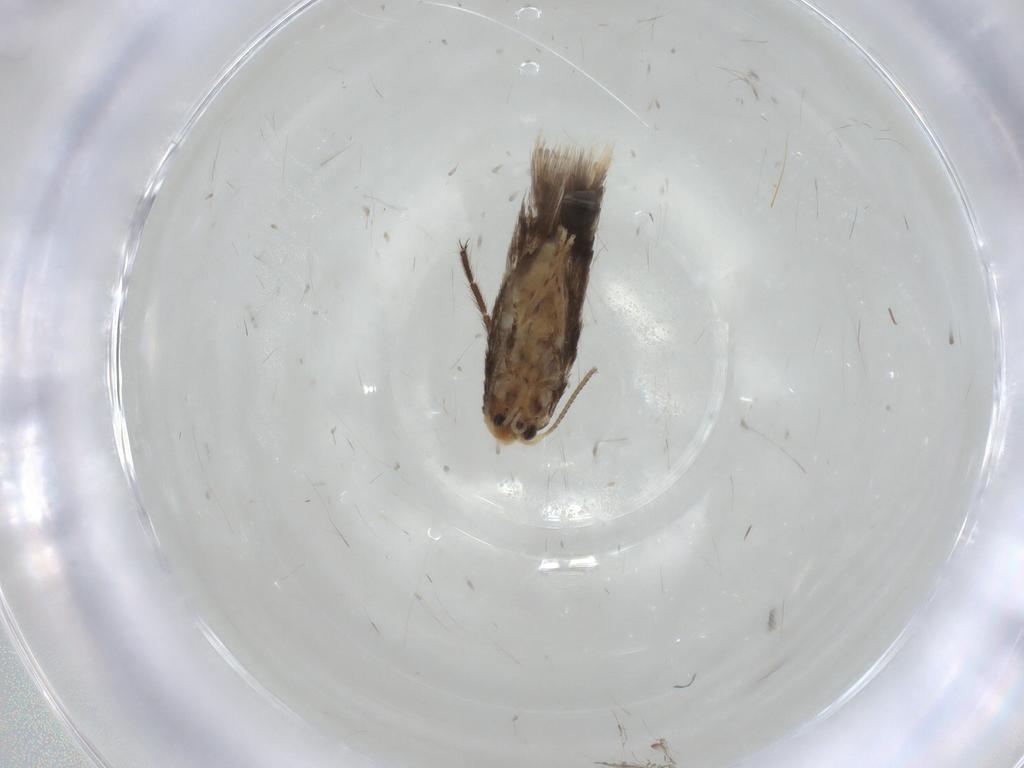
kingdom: Animalia
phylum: Arthropoda
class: Insecta
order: Lepidoptera
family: Nepticulidae
